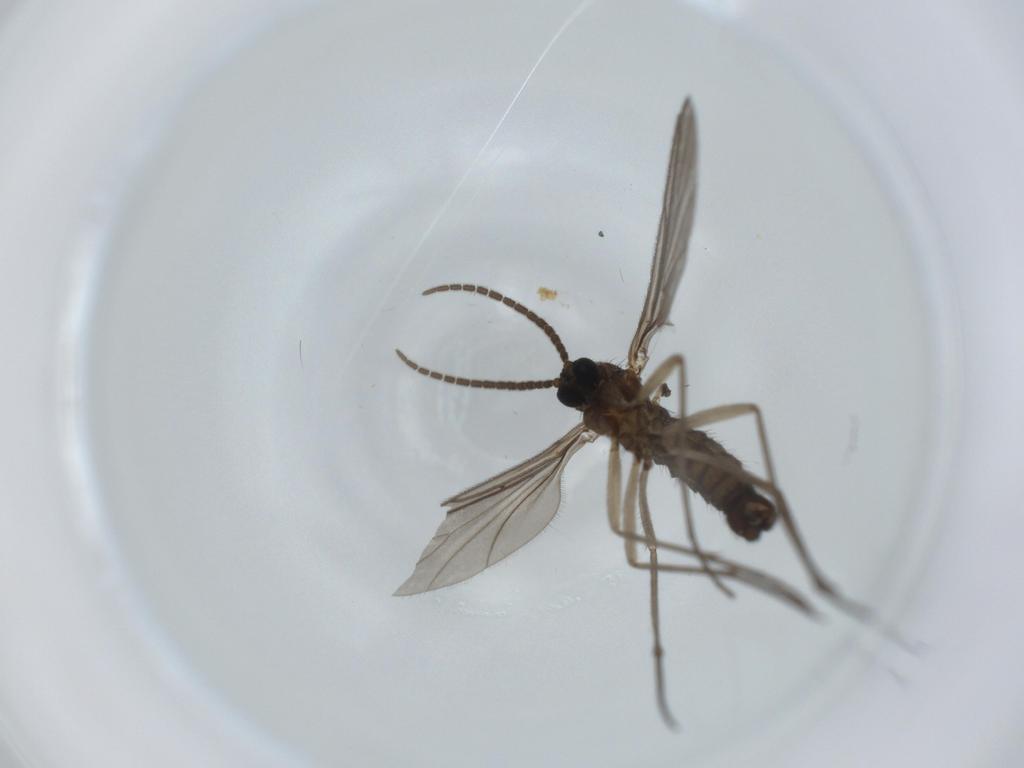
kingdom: Animalia
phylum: Arthropoda
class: Insecta
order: Diptera
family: Sciaridae
